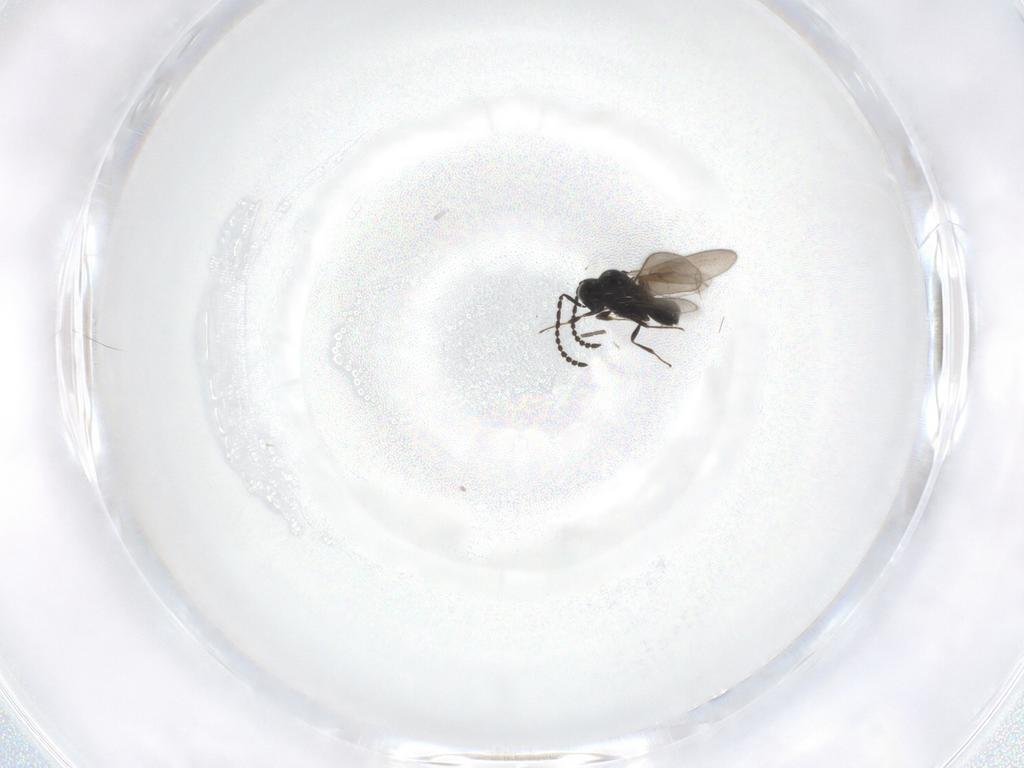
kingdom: Animalia
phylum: Arthropoda
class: Insecta
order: Hymenoptera
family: Scelionidae
